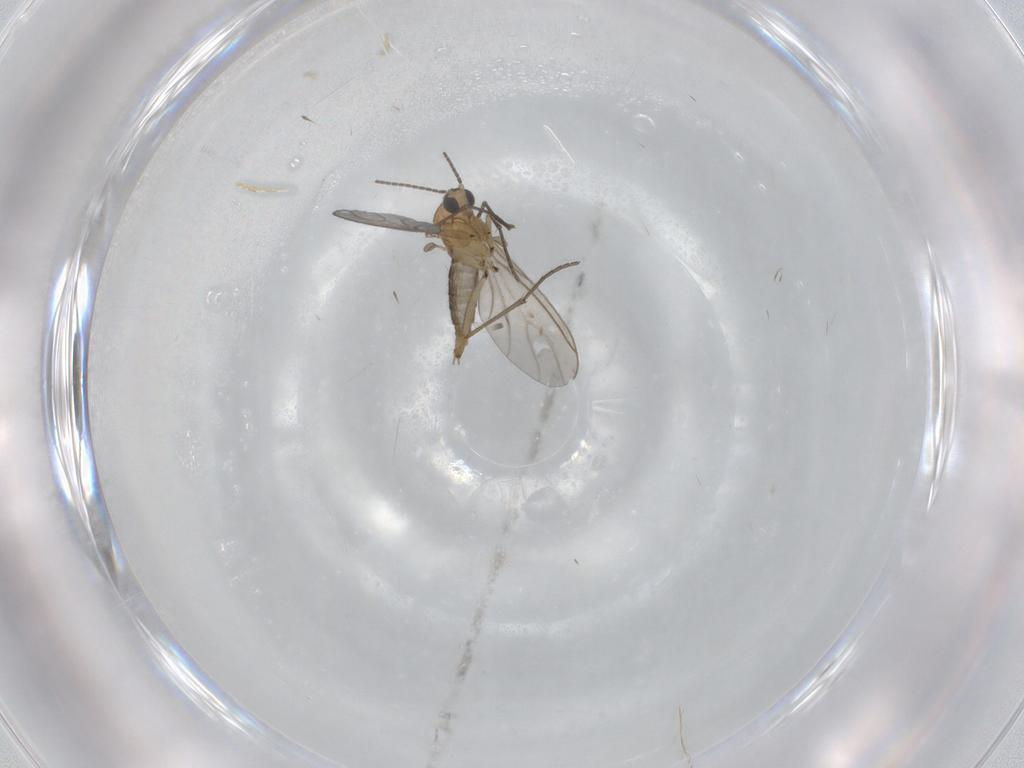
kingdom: Animalia
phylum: Arthropoda
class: Insecta
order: Diptera
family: Sciaridae
